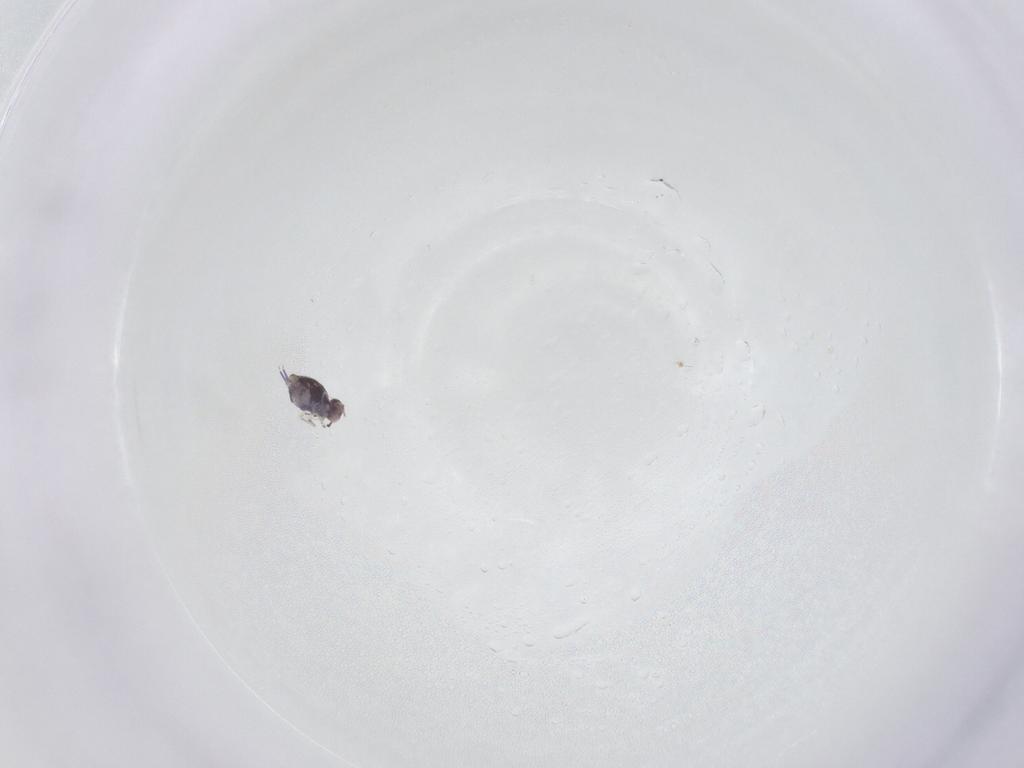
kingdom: Animalia
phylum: Arthropoda
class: Collembola
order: Symphypleona
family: Sminthuridae
